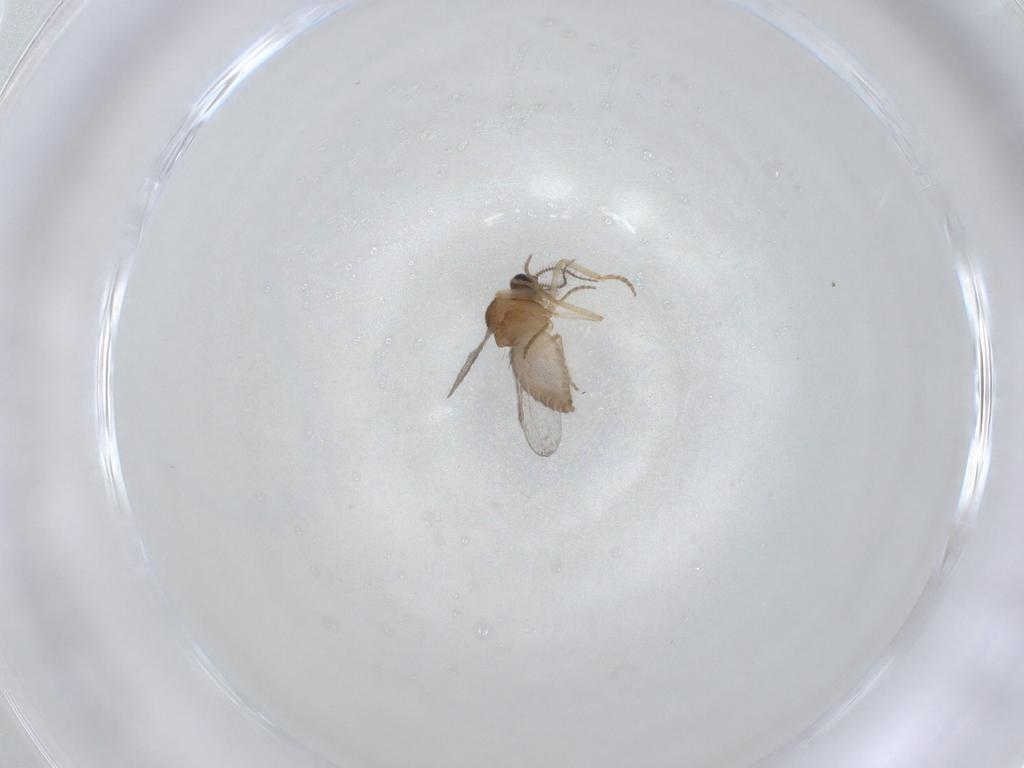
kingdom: Animalia
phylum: Arthropoda
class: Insecta
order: Diptera
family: Ceratopogonidae
